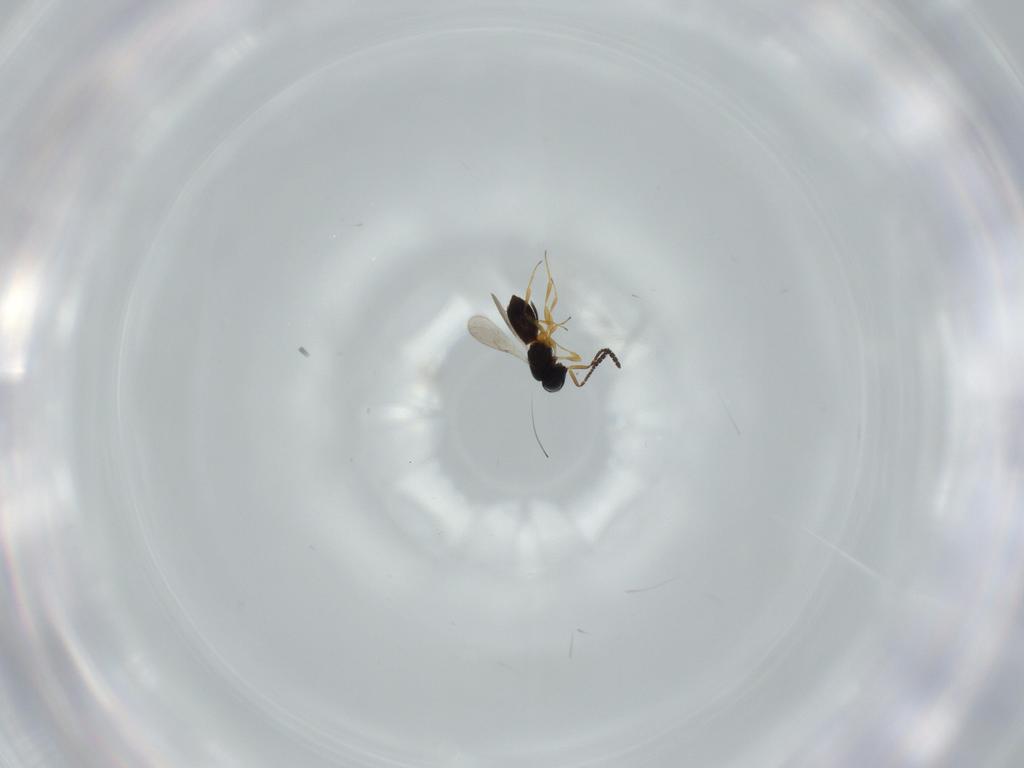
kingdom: Animalia
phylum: Arthropoda
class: Insecta
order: Hymenoptera
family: Scelionidae
